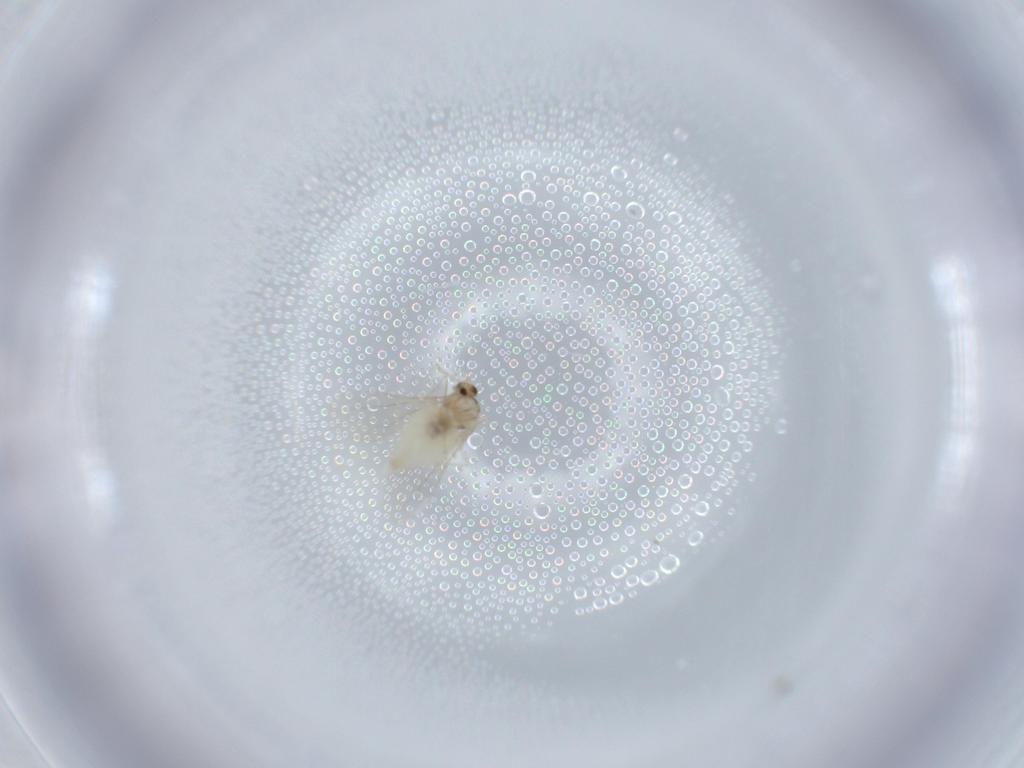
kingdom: Animalia
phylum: Arthropoda
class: Insecta
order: Diptera
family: Cecidomyiidae
